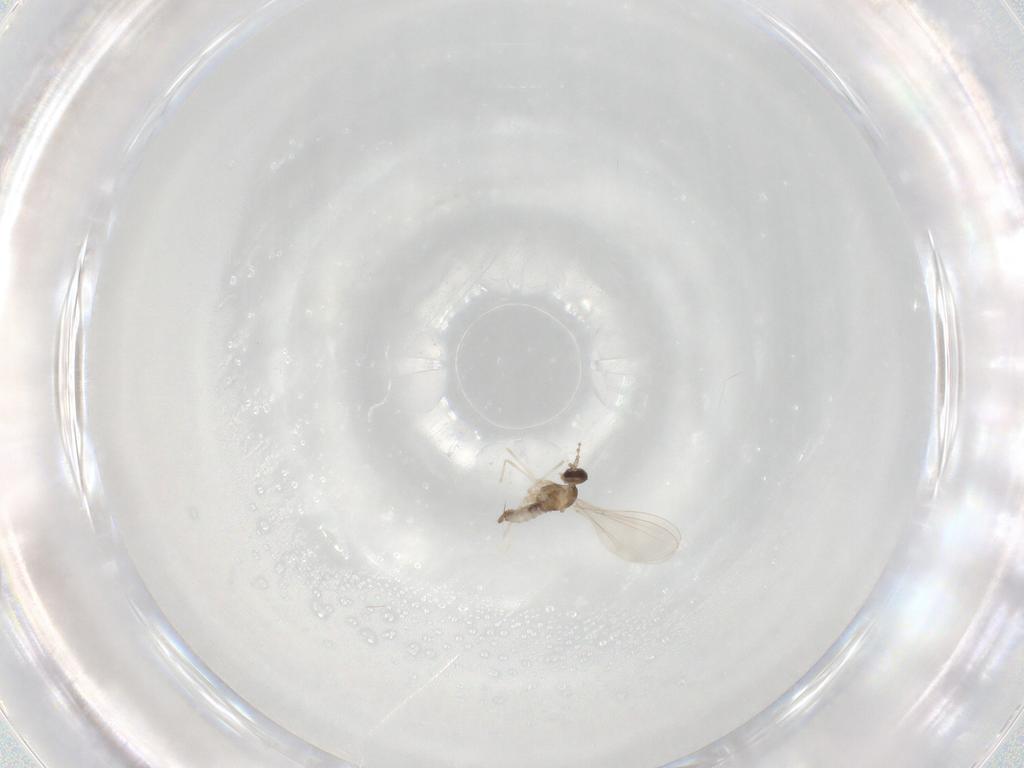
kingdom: Animalia
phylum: Arthropoda
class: Insecta
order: Diptera
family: Cecidomyiidae
